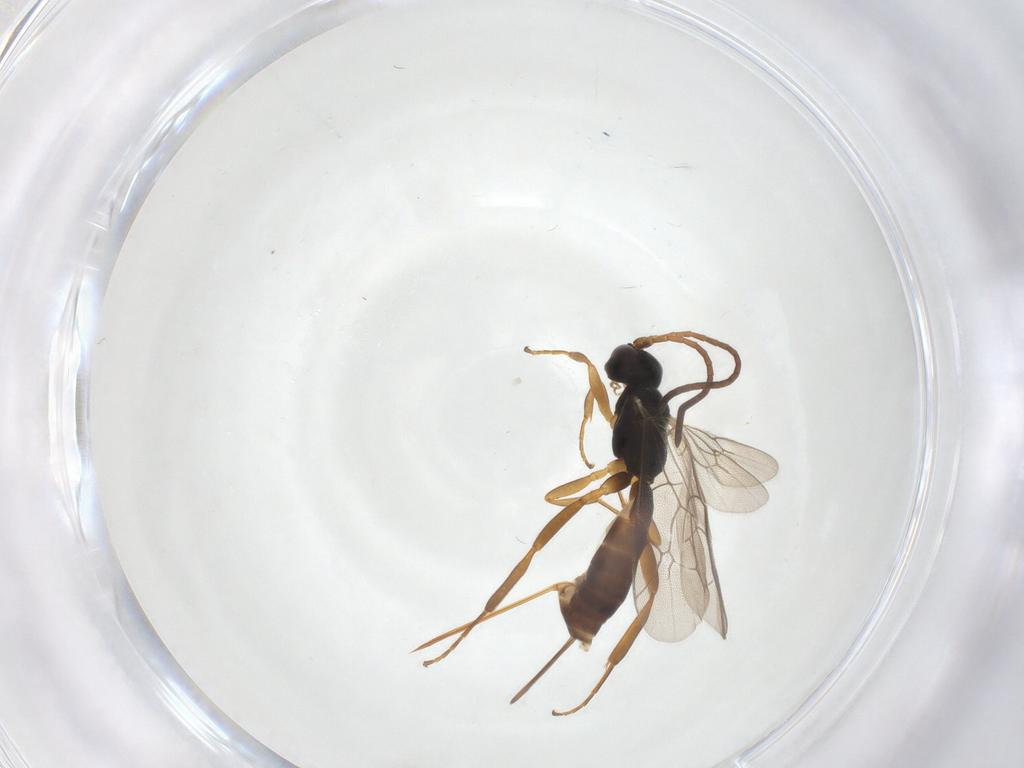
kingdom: Animalia
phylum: Arthropoda
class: Insecta
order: Hymenoptera
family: Ichneumonidae
